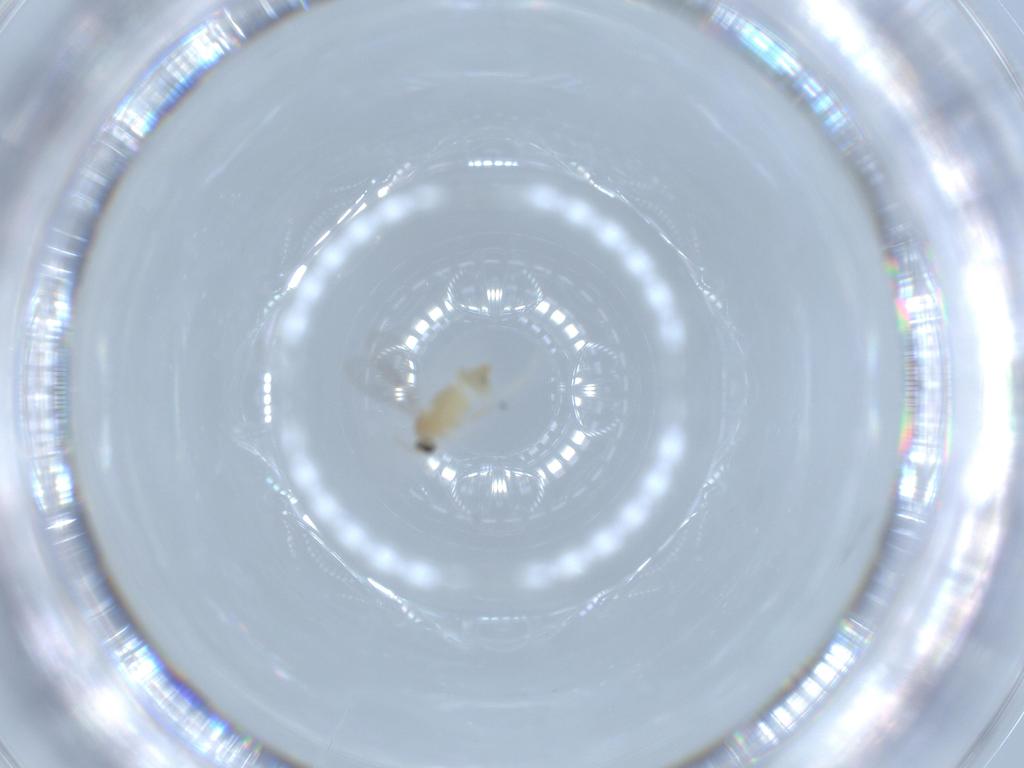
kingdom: Animalia
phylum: Arthropoda
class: Insecta
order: Diptera
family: Cecidomyiidae
